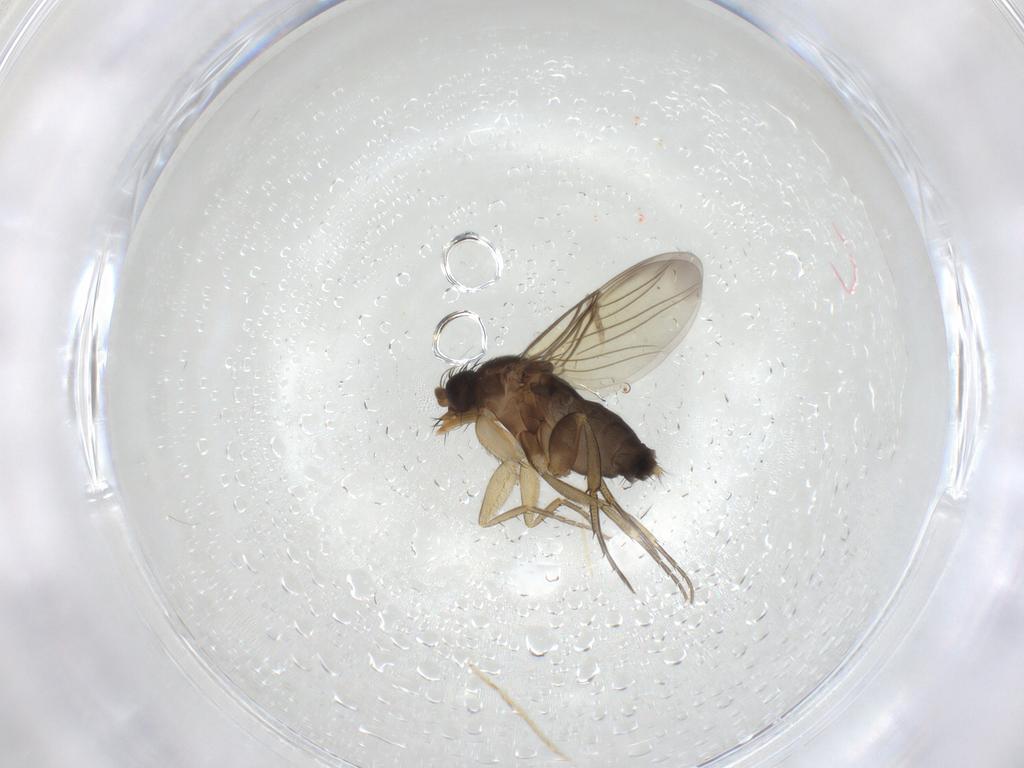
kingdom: Animalia
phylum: Arthropoda
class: Insecta
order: Diptera
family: Phoridae
